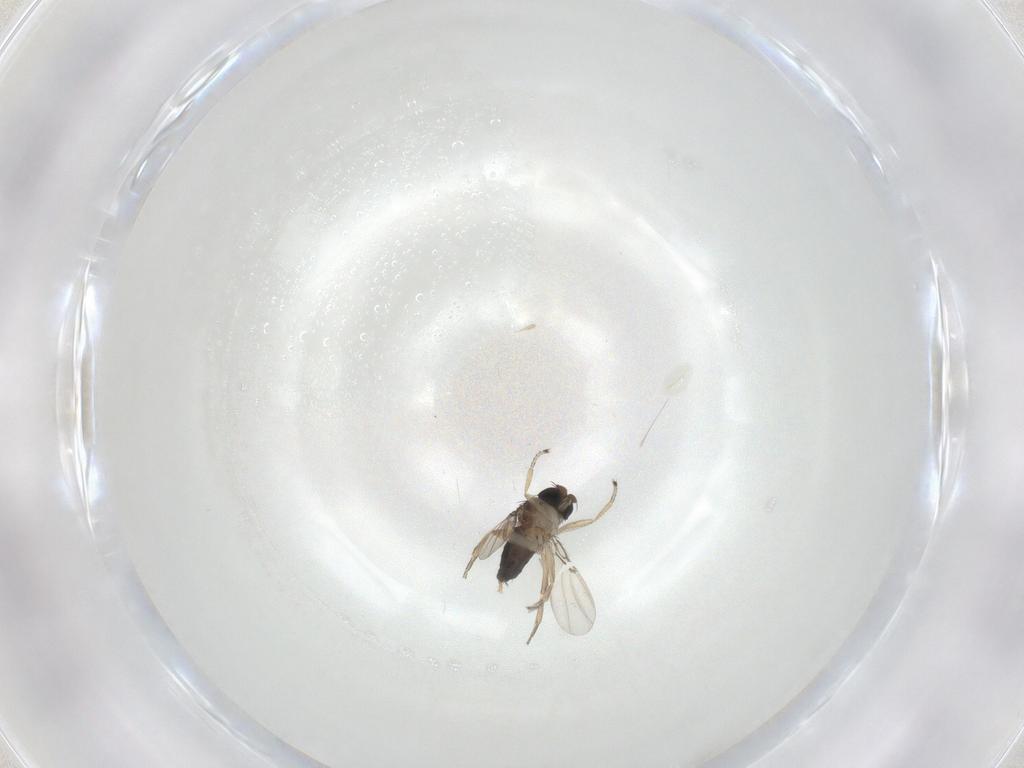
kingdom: Animalia
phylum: Arthropoda
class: Insecta
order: Diptera
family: Phoridae
